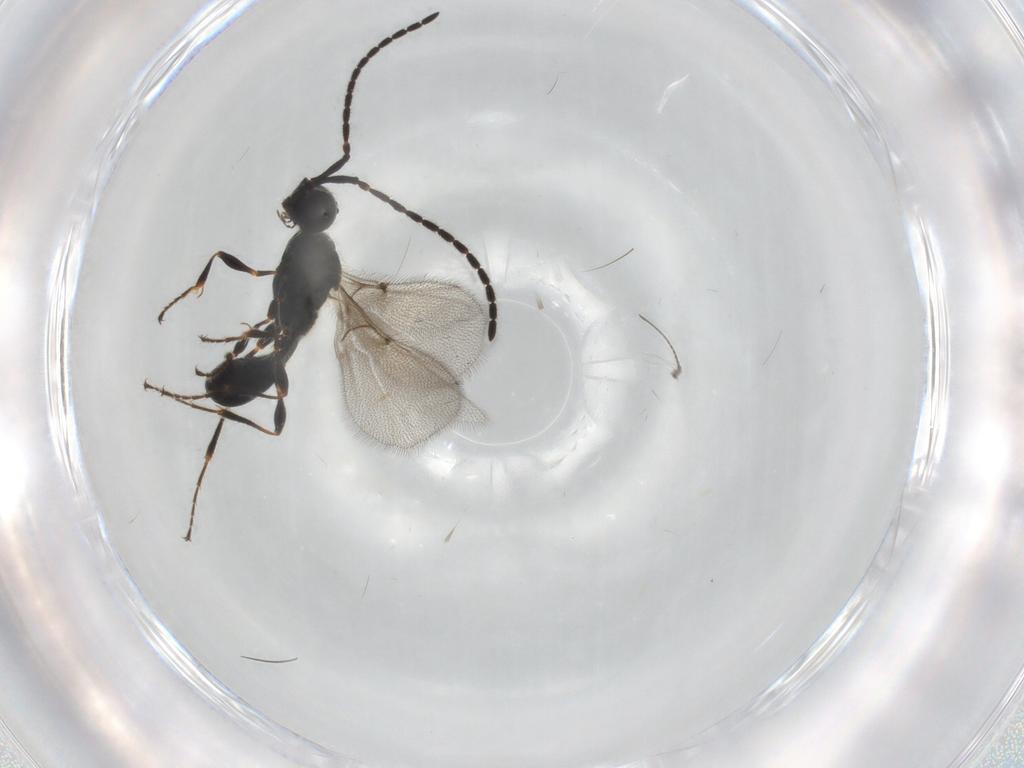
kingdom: Animalia
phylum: Arthropoda
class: Insecta
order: Hymenoptera
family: Diapriidae
